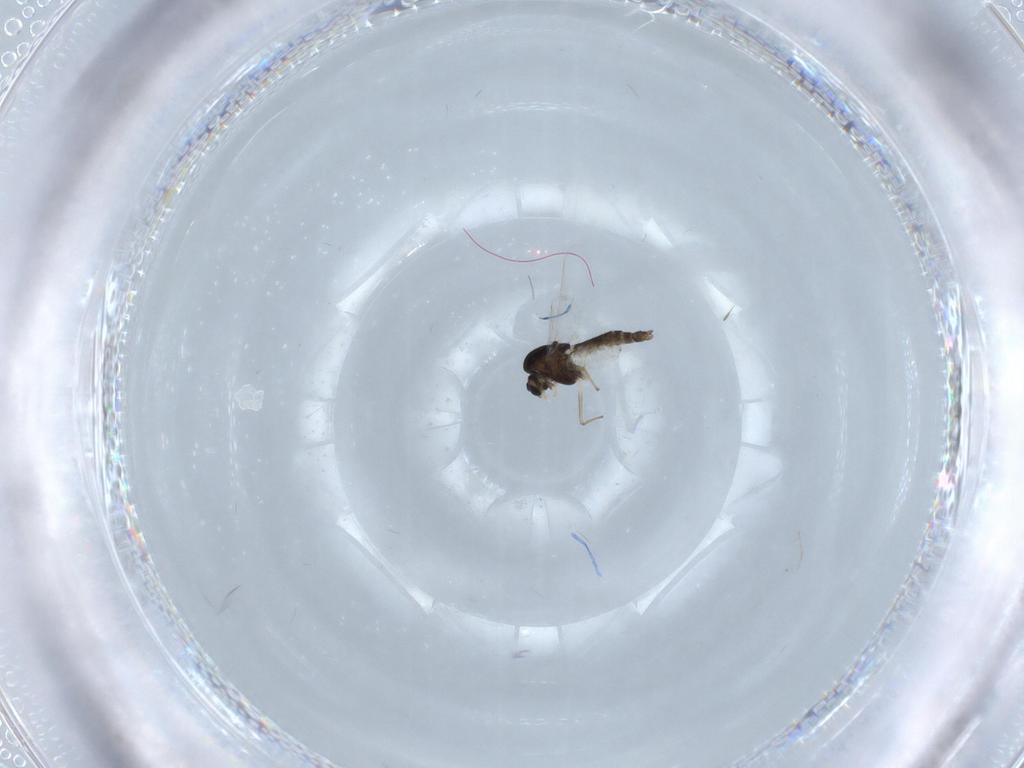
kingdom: Animalia
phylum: Arthropoda
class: Insecta
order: Diptera
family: Chironomidae
